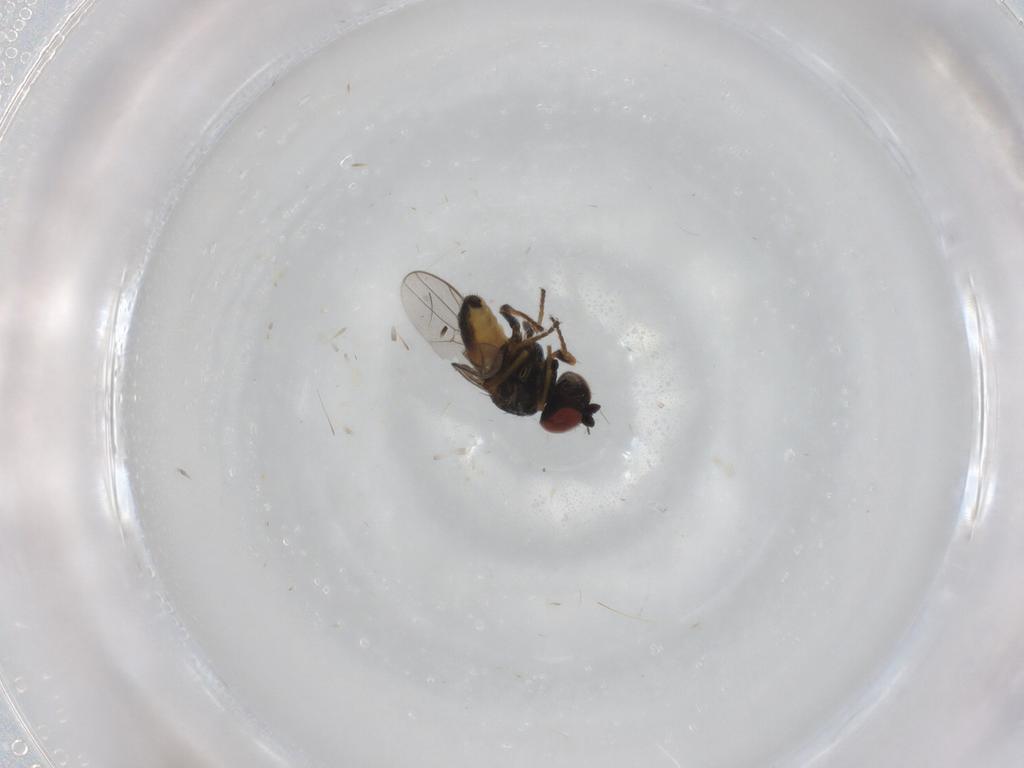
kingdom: Animalia
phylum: Arthropoda
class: Insecta
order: Diptera
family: Chloropidae
